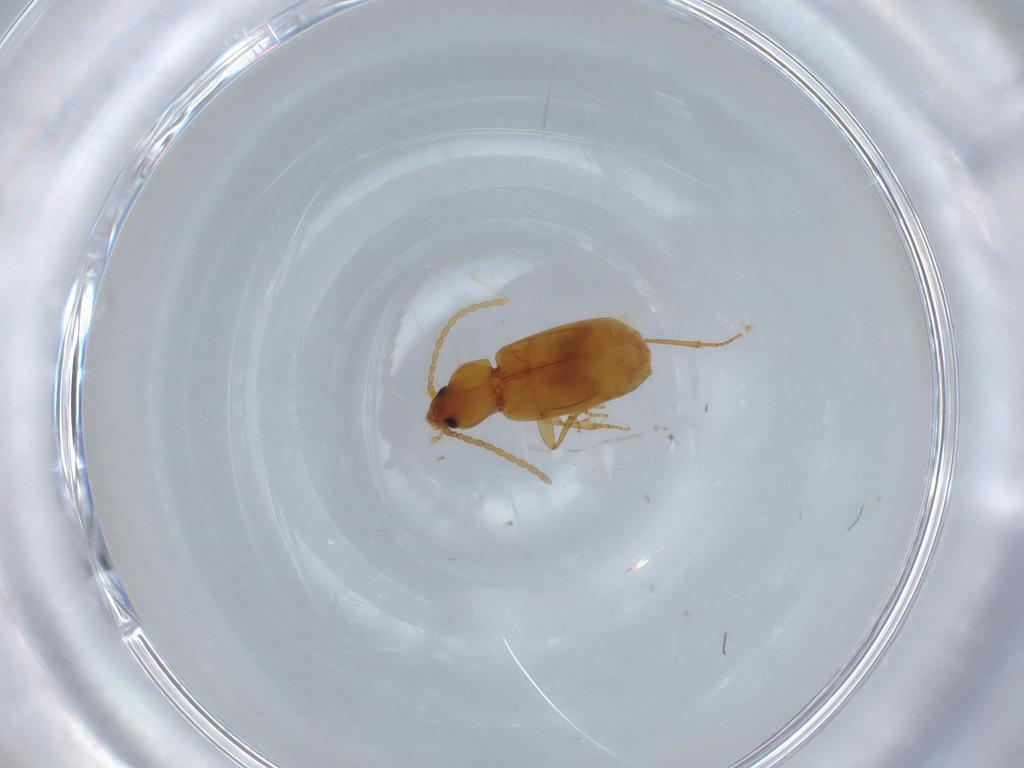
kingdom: Animalia
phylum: Arthropoda
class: Insecta
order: Coleoptera
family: Carabidae
